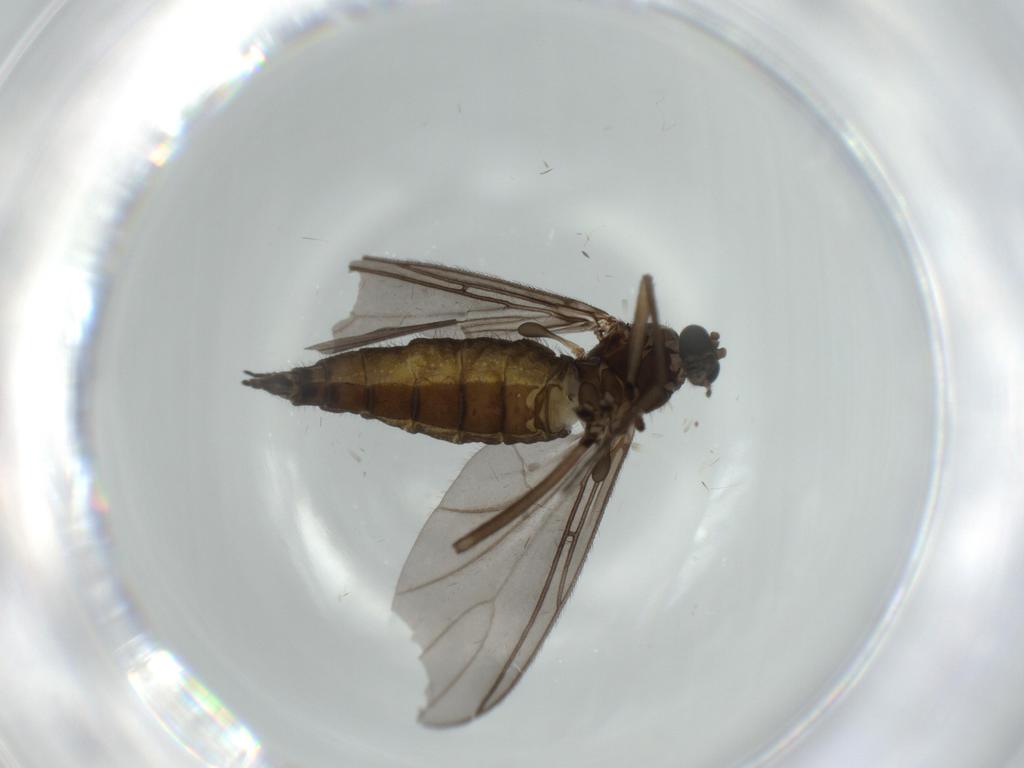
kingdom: Animalia
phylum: Arthropoda
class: Insecta
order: Diptera
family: Sciaridae
